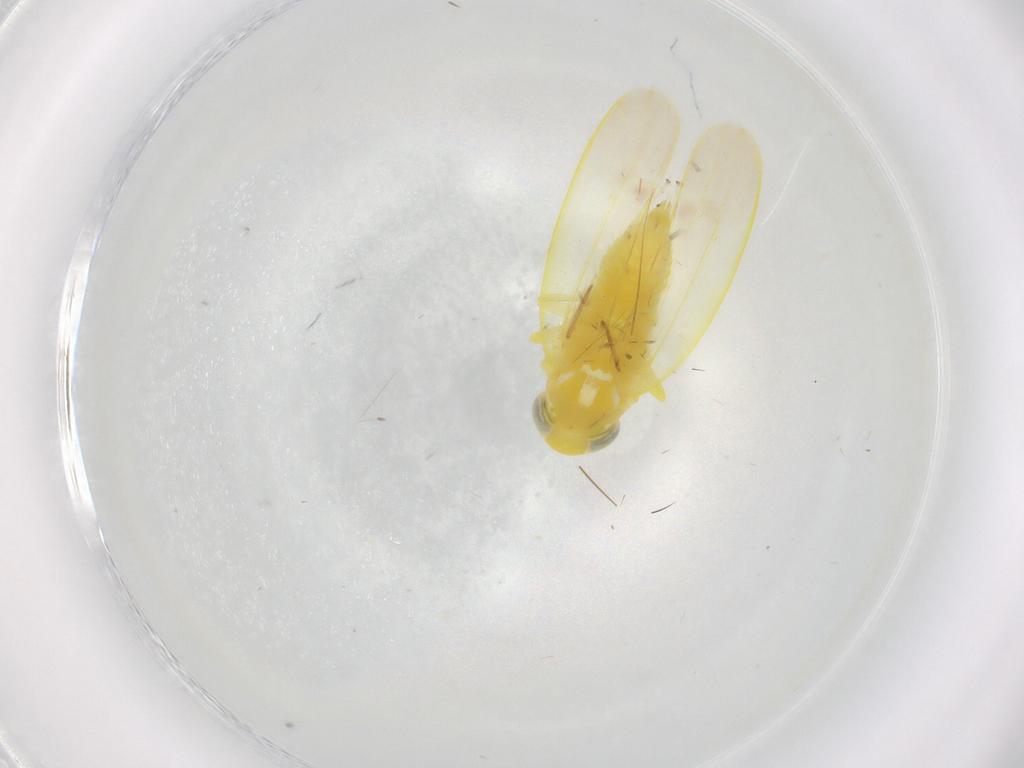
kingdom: Animalia
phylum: Arthropoda
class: Insecta
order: Hemiptera
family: Cicadellidae
